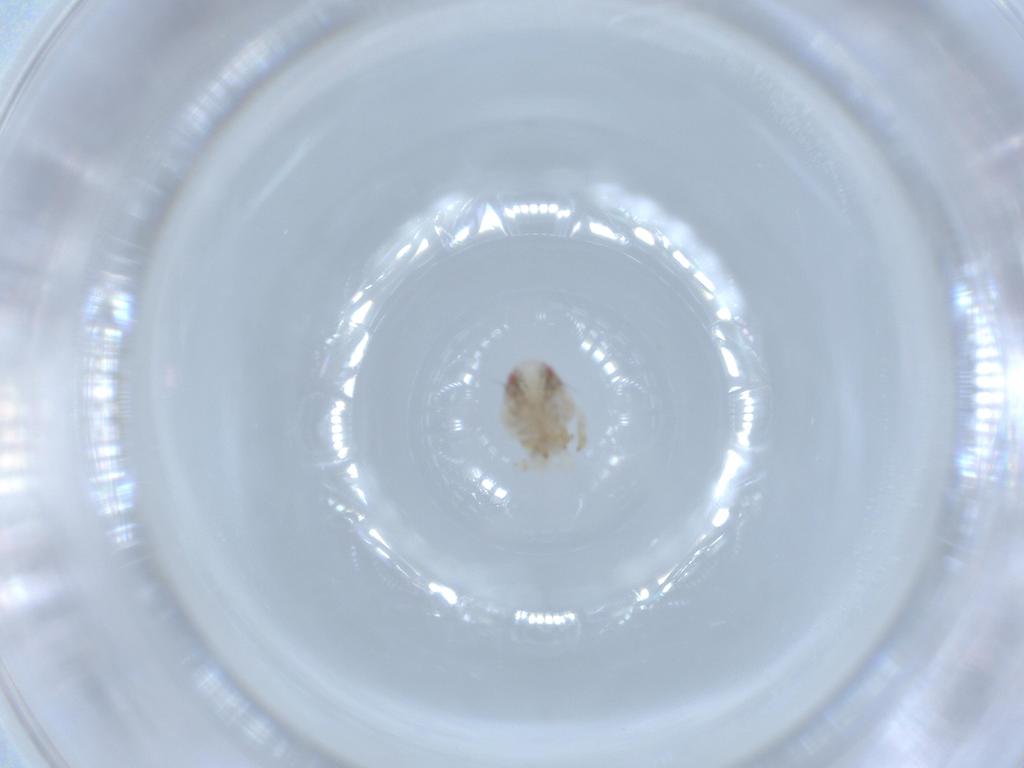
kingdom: Animalia
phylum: Arthropoda
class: Insecta
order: Hemiptera
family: Acanaloniidae
